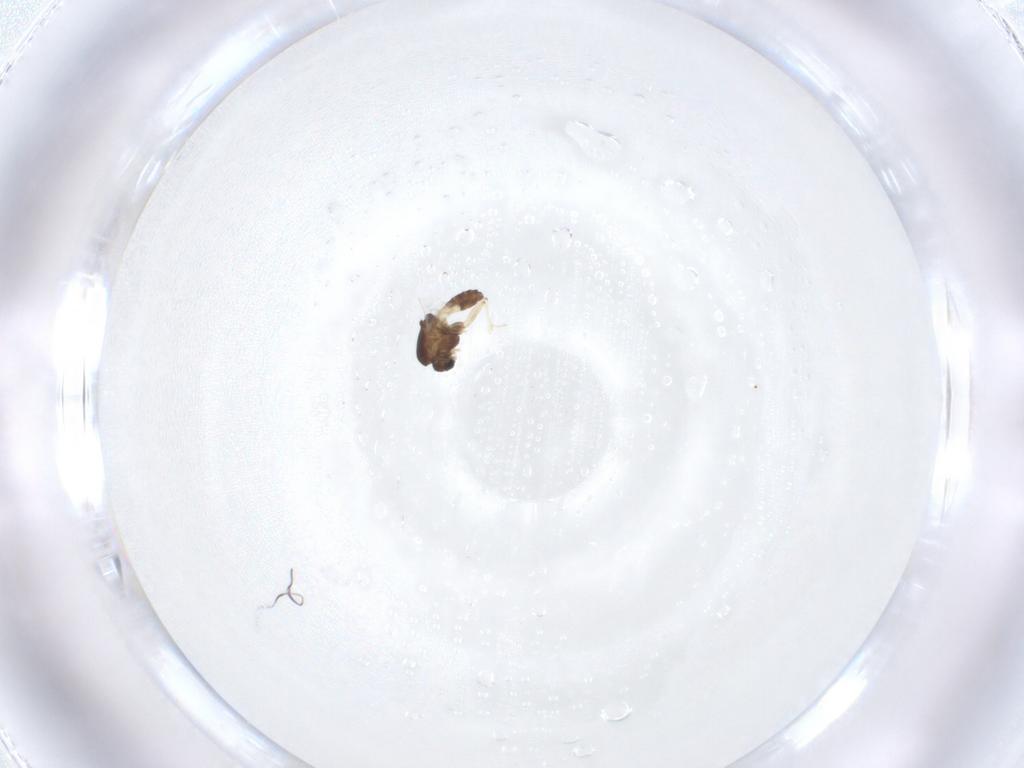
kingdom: Animalia
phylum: Arthropoda
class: Insecta
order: Diptera
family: Chironomidae
